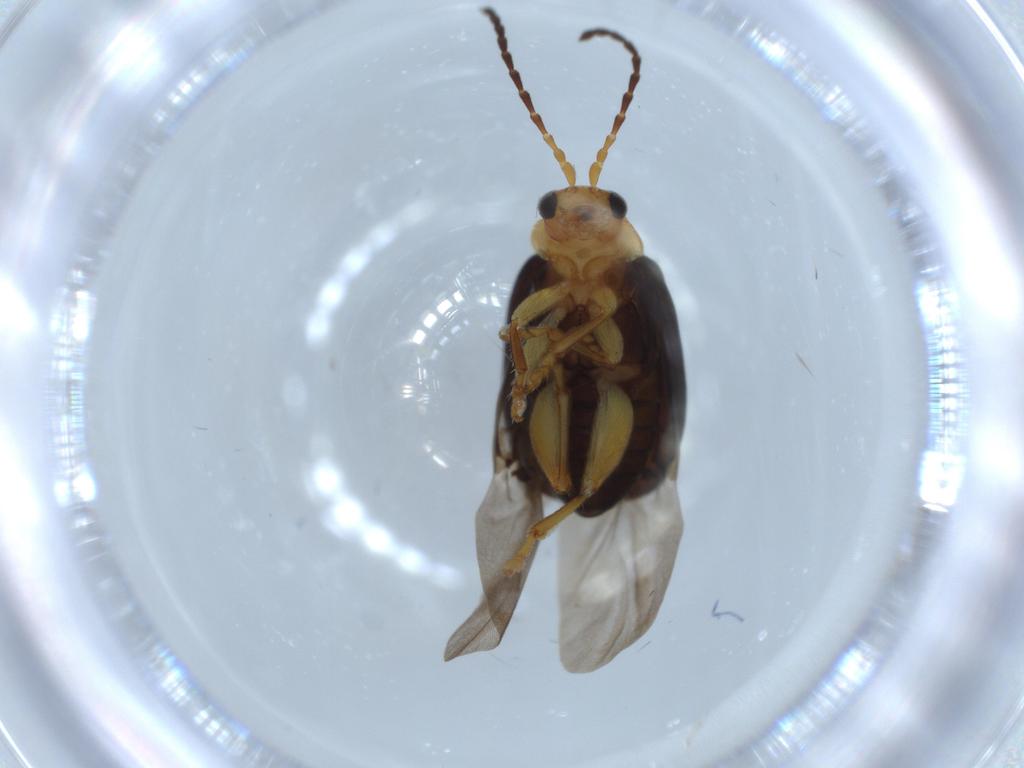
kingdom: Animalia
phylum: Arthropoda
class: Insecta
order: Coleoptera
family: Chrysomelidae
